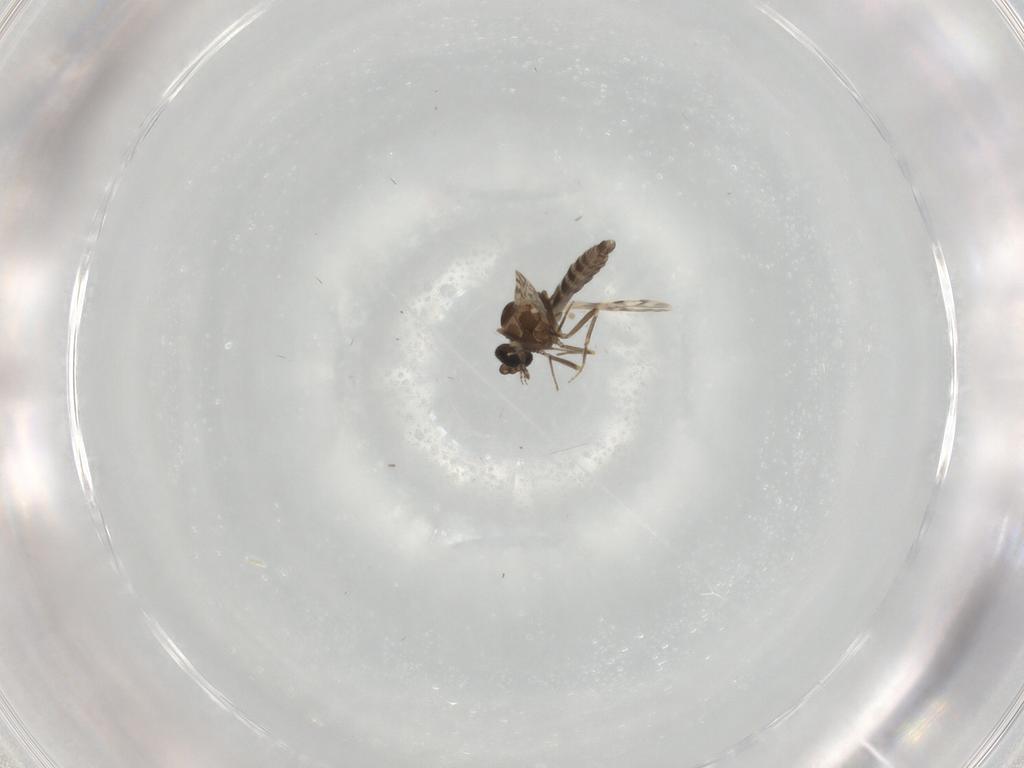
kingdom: Animalia
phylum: Arthropoda
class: Insecta
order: Diptera
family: Ceratopogonidae
